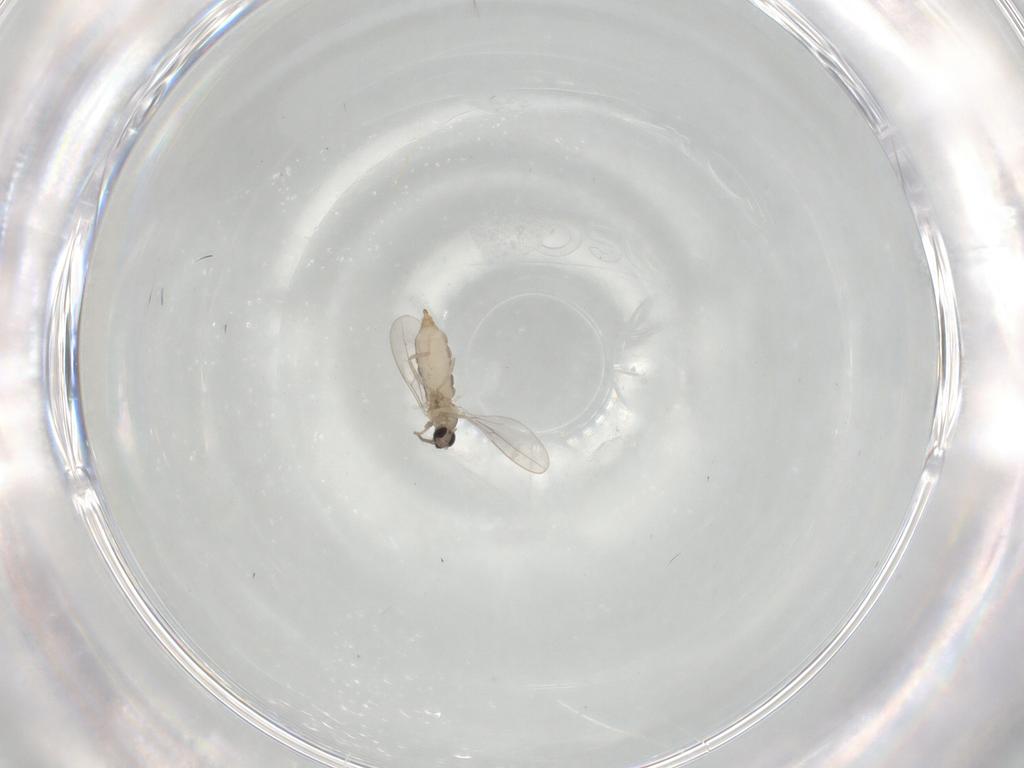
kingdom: Animalia
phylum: Arthropoda
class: Insecta
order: Diptera
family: Cecidomyiidae
